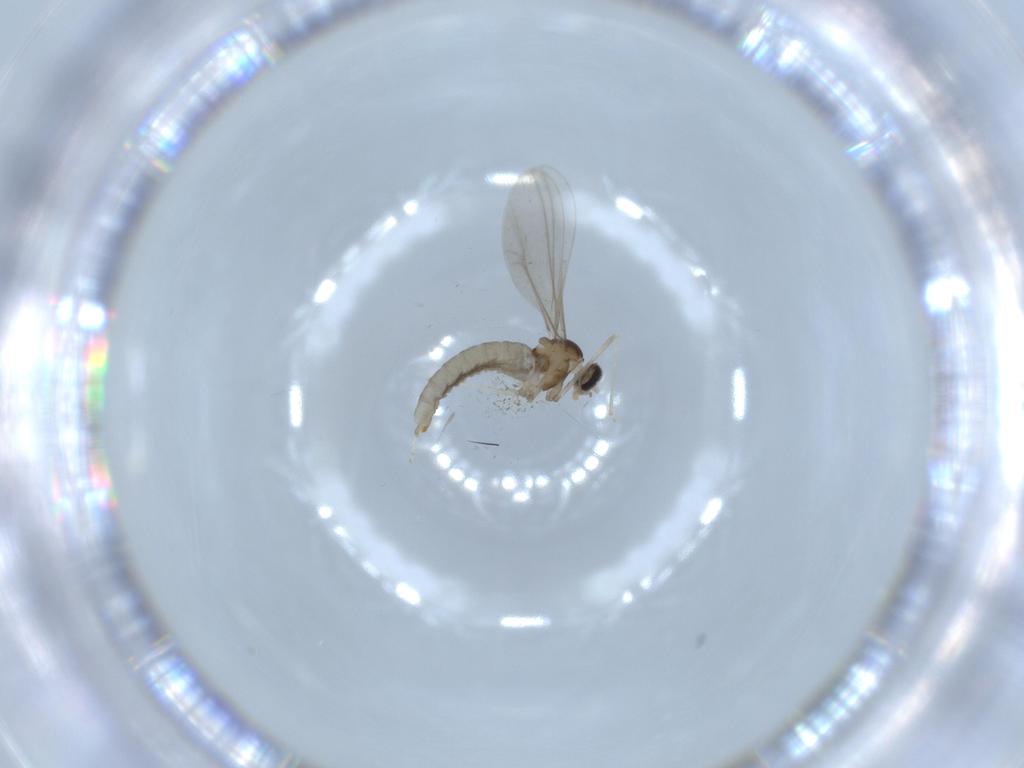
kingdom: Animalia
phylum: Arthropoda
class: Insecta
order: Diptera
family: Cecidomyiidae
